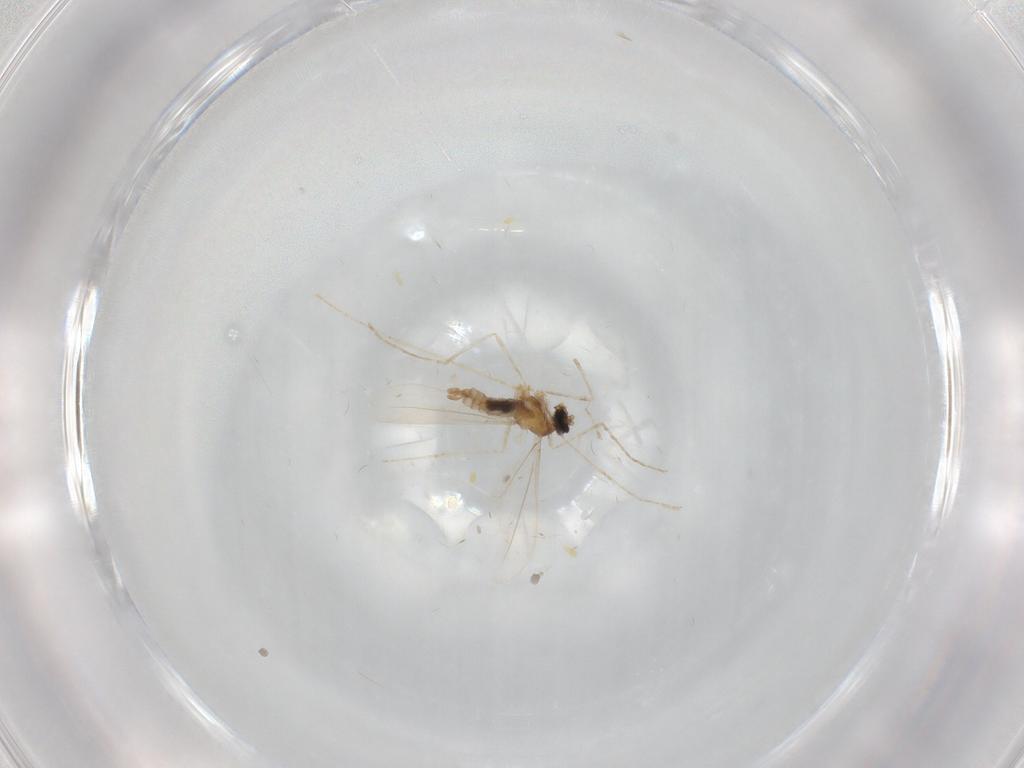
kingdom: Animalia
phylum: Arthropoda
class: Insecta
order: Diptera
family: Cecidomyiidae
